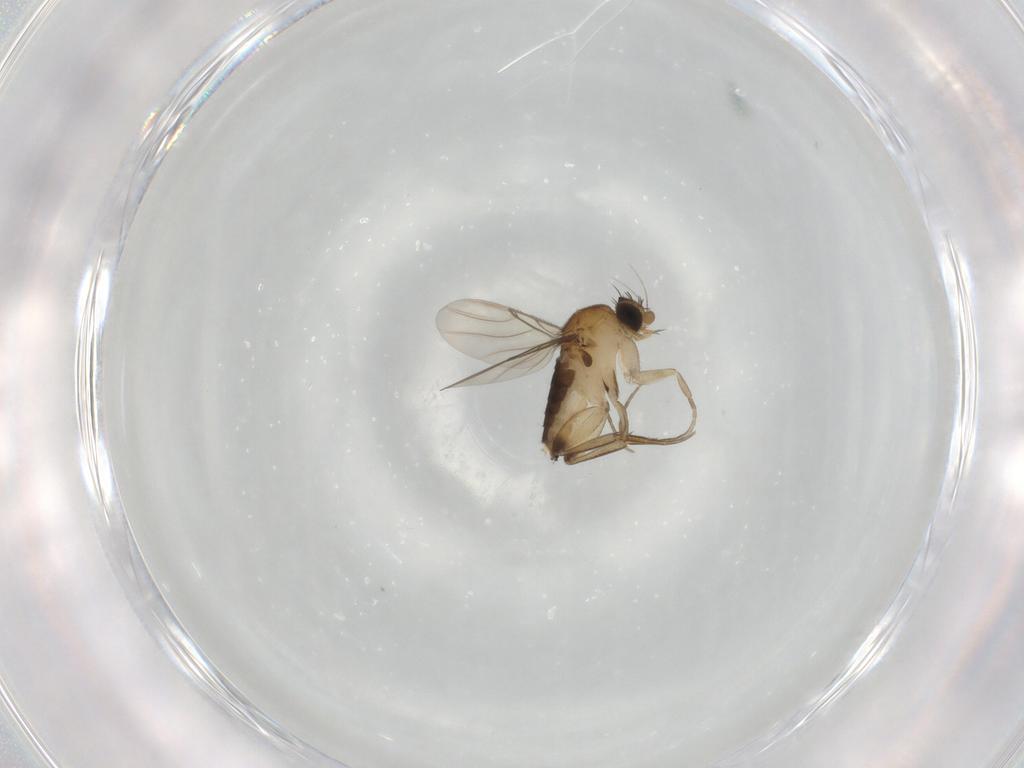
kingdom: Animalia
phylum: Arthropoda
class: Insecta
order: Diptera
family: Phoridae
